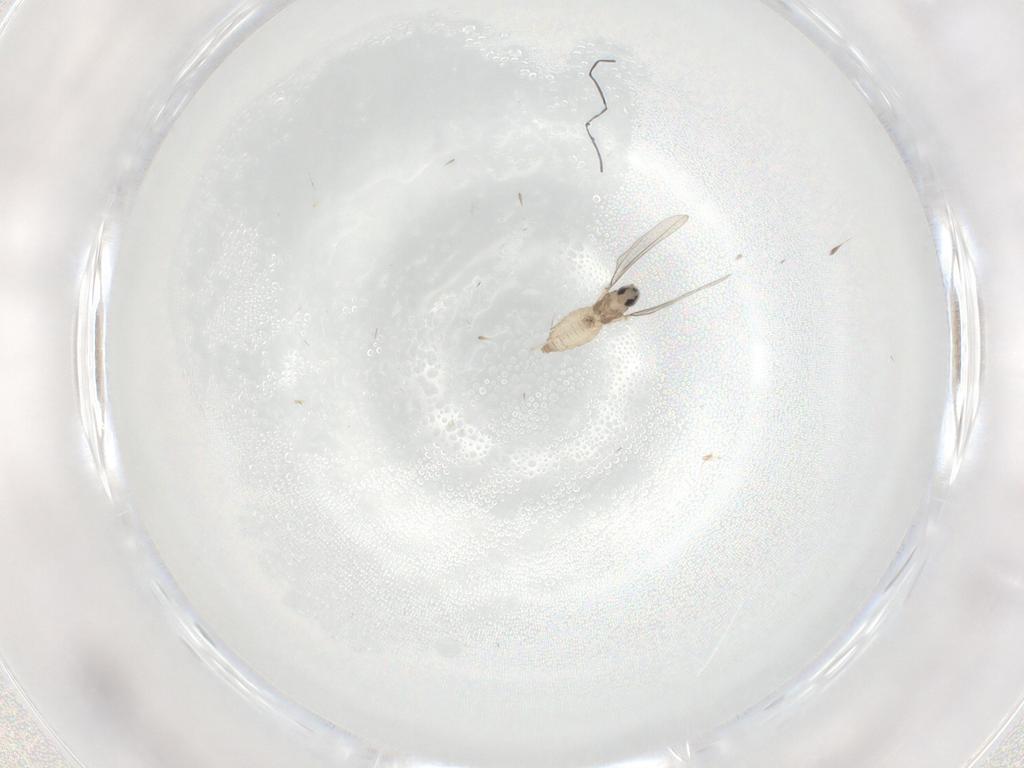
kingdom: Animalia
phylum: Arthropoda
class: Insecta
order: Diptera
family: Cecidomyiidae
